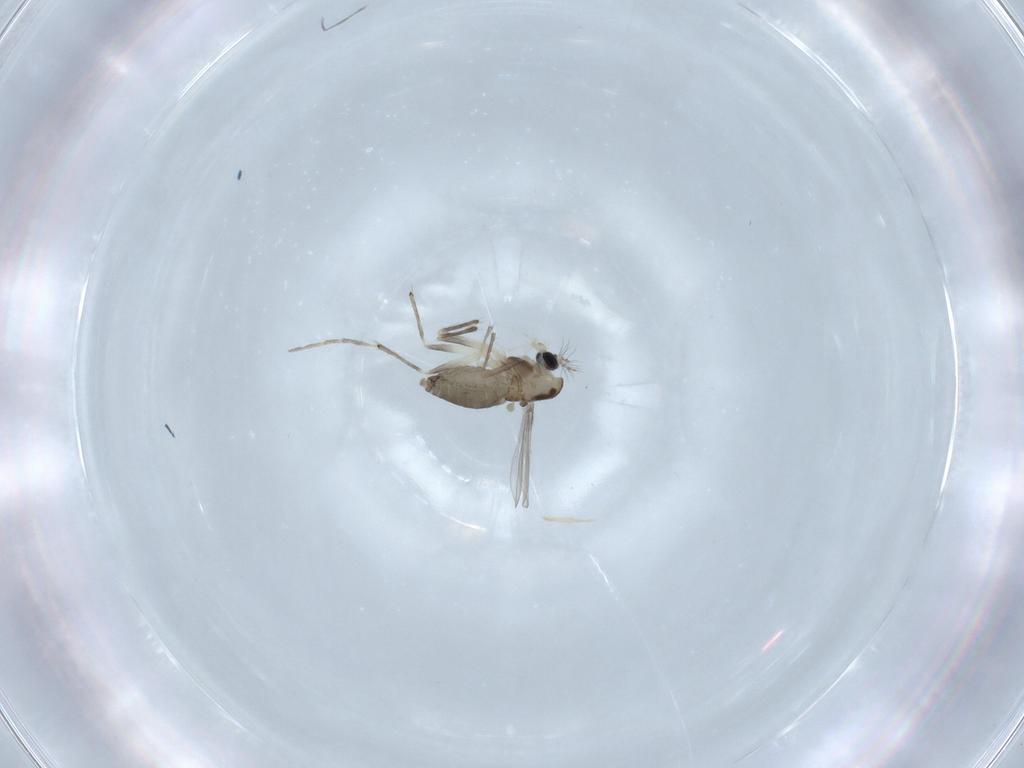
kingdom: Animalia
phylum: Arthropoda
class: Insecta
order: Diptera
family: Chironomidae
